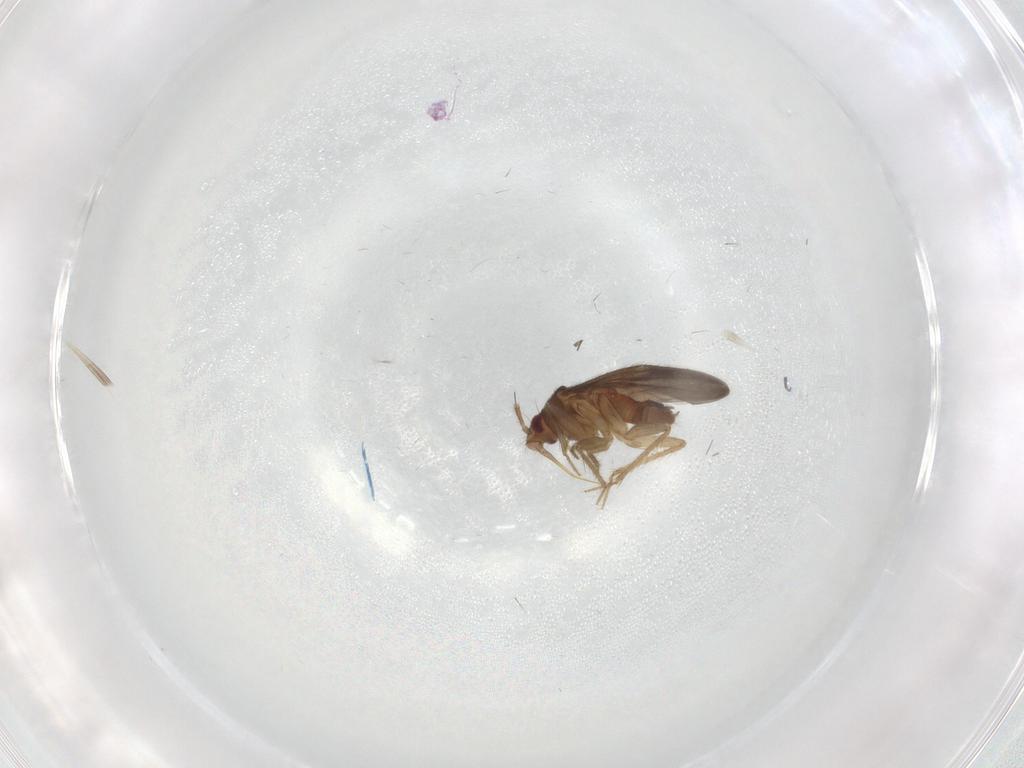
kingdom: Animalia
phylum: Arthropoda
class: Insecta
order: Hemiptera
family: Ceratocombidae
